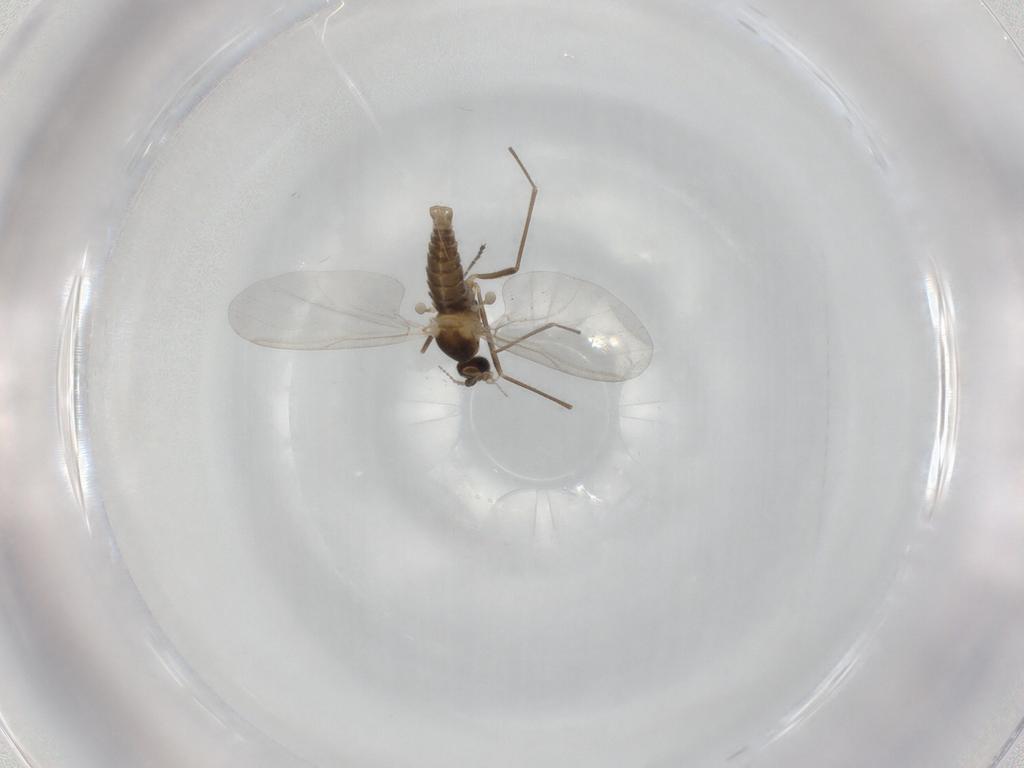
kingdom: Animalia
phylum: Arthropoda
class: Insecta
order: Diptera
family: Cecidomyiidae
